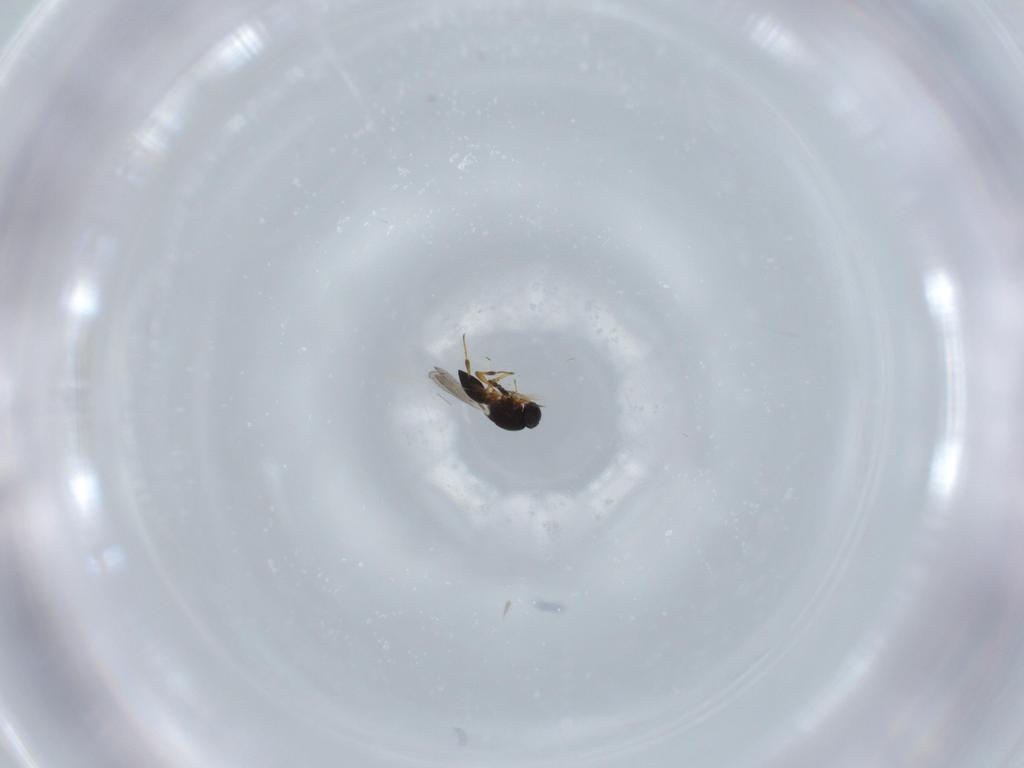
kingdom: Animalia
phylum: Arthropoda
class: Insecta
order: Hymenoptera
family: Platygastridae
